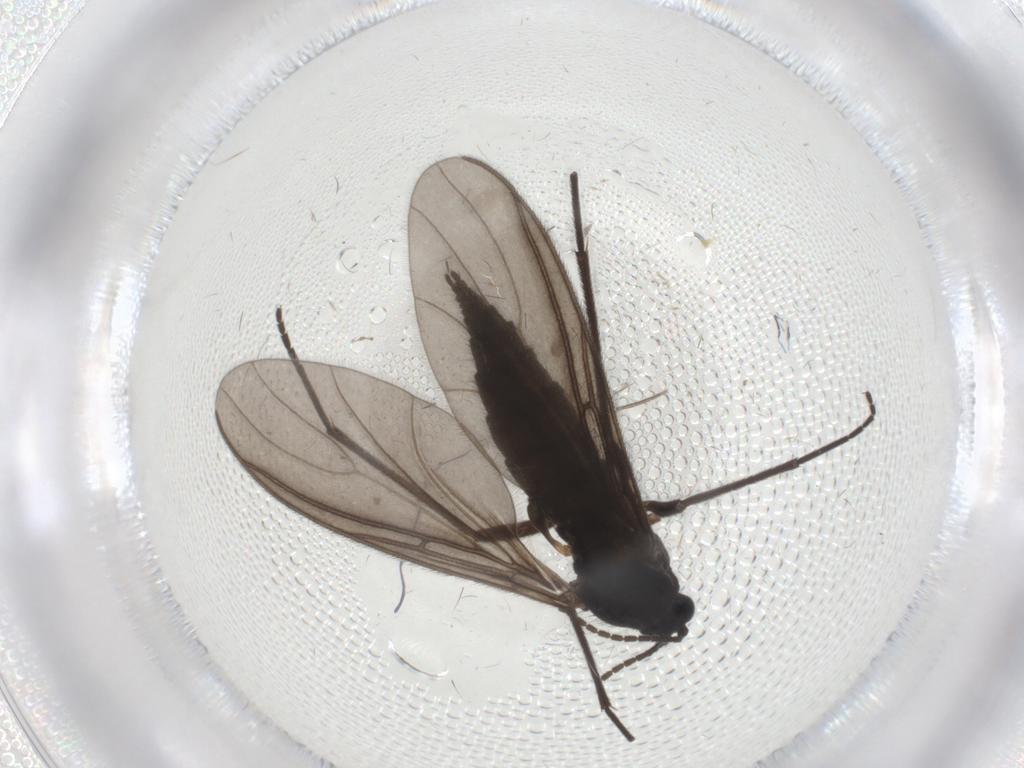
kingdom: Animalia
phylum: Arthropoda
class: Insecta
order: Diptera
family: Sciaridae
